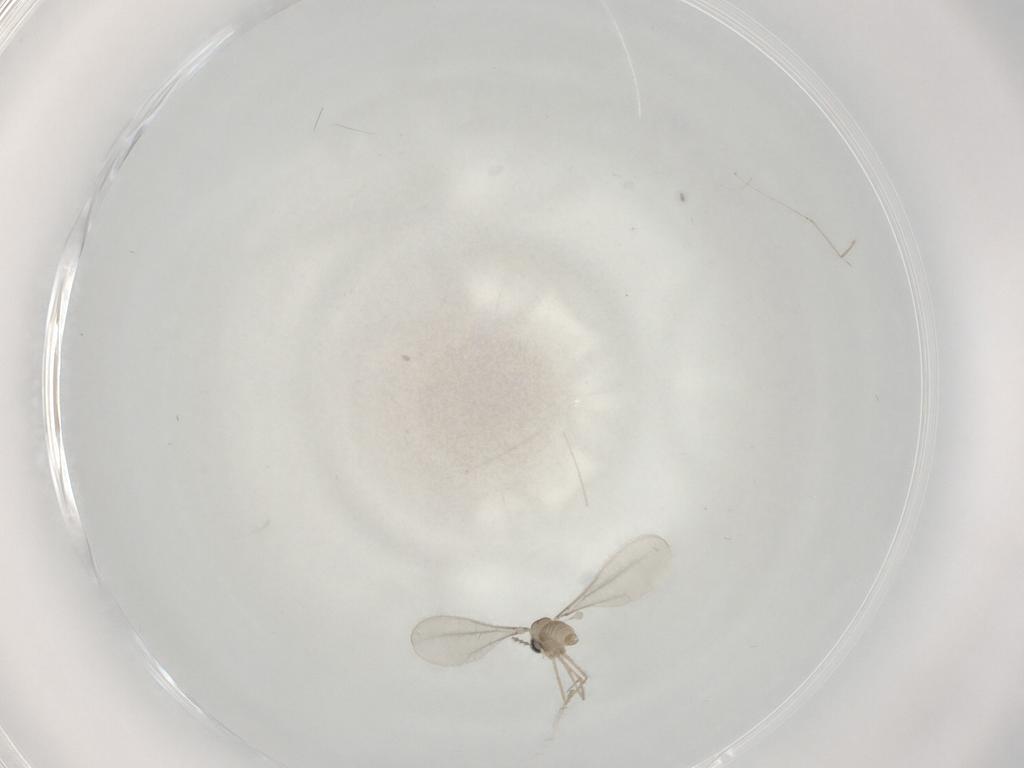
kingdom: Animalia
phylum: Arthropoda
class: Insecta
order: Diptera
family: Cecidomyiidae
